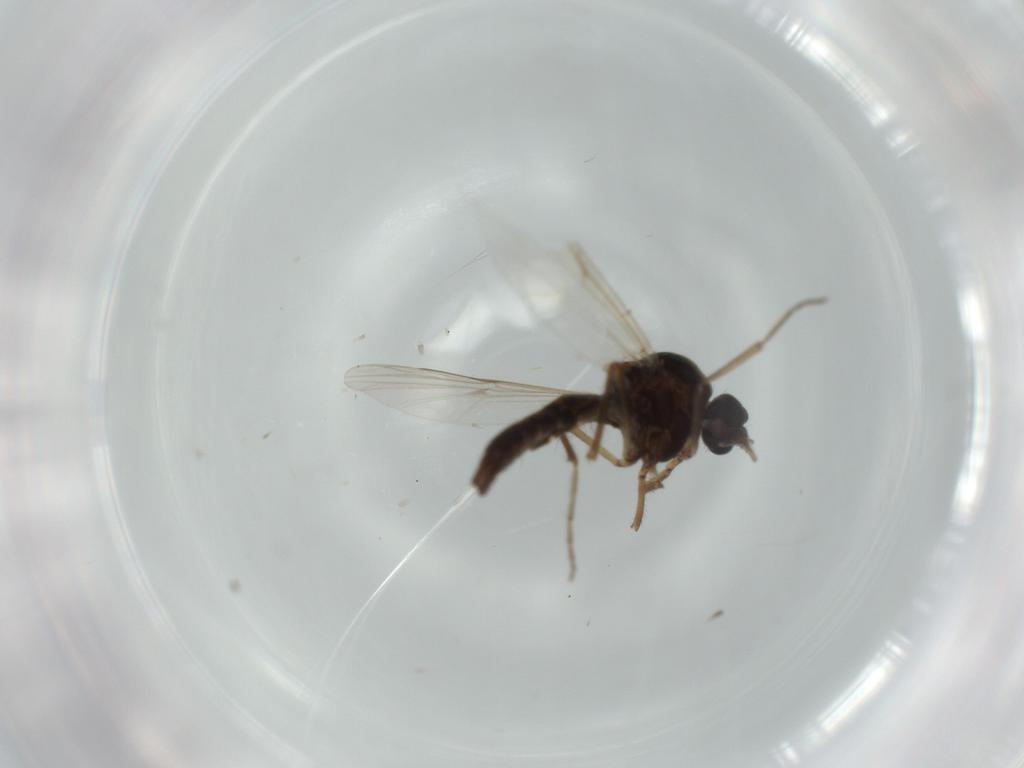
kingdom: Animalia
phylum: Arthropoda
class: Insecta
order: Diptera
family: Ceratopogonidae
